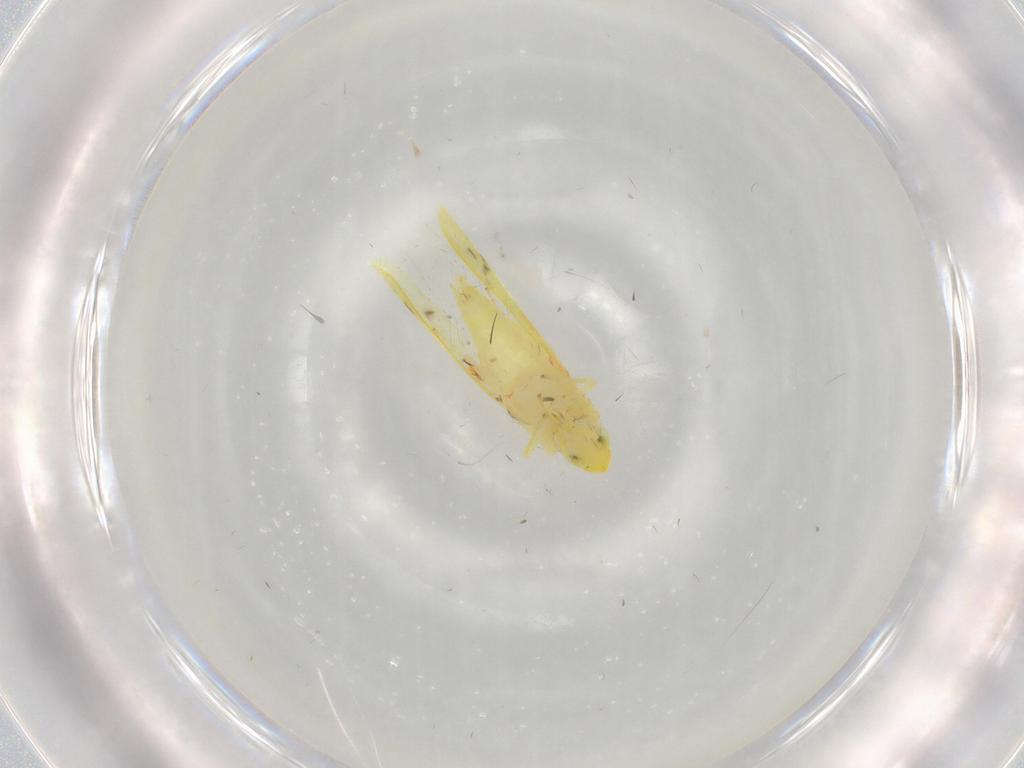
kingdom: Animalia
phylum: Arthropoda
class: Insecta
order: Hemiptera
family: Cicadellidae
